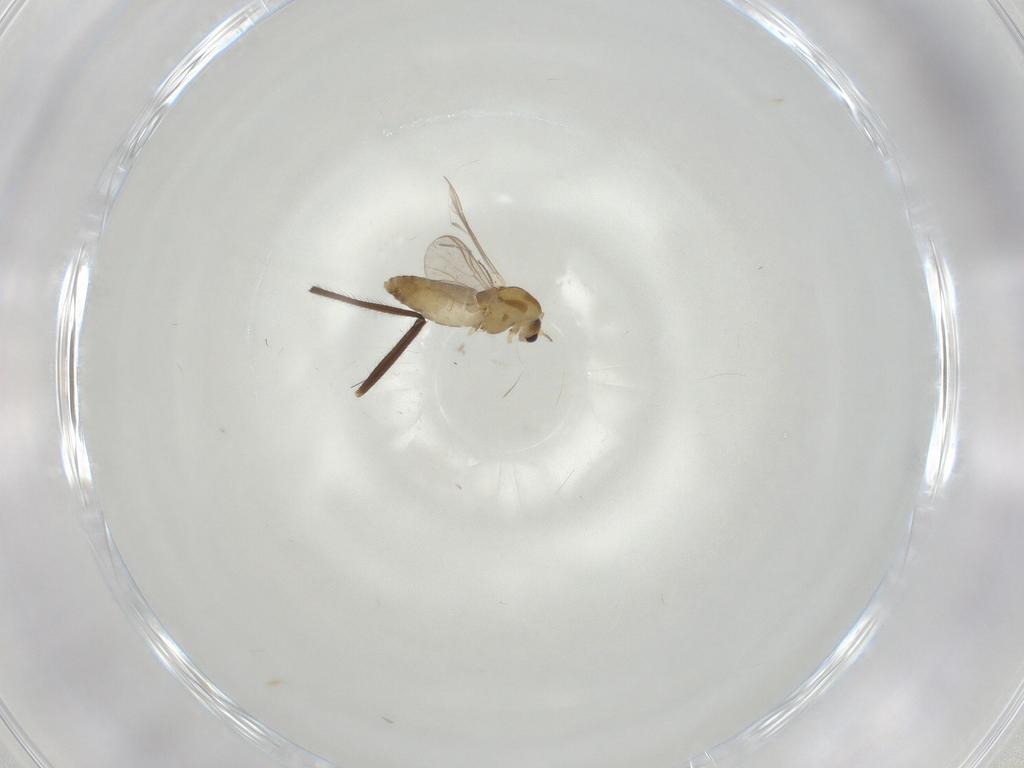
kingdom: Animalia
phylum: Arthropoda
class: Insecta
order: Diptera
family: Chironomidae
